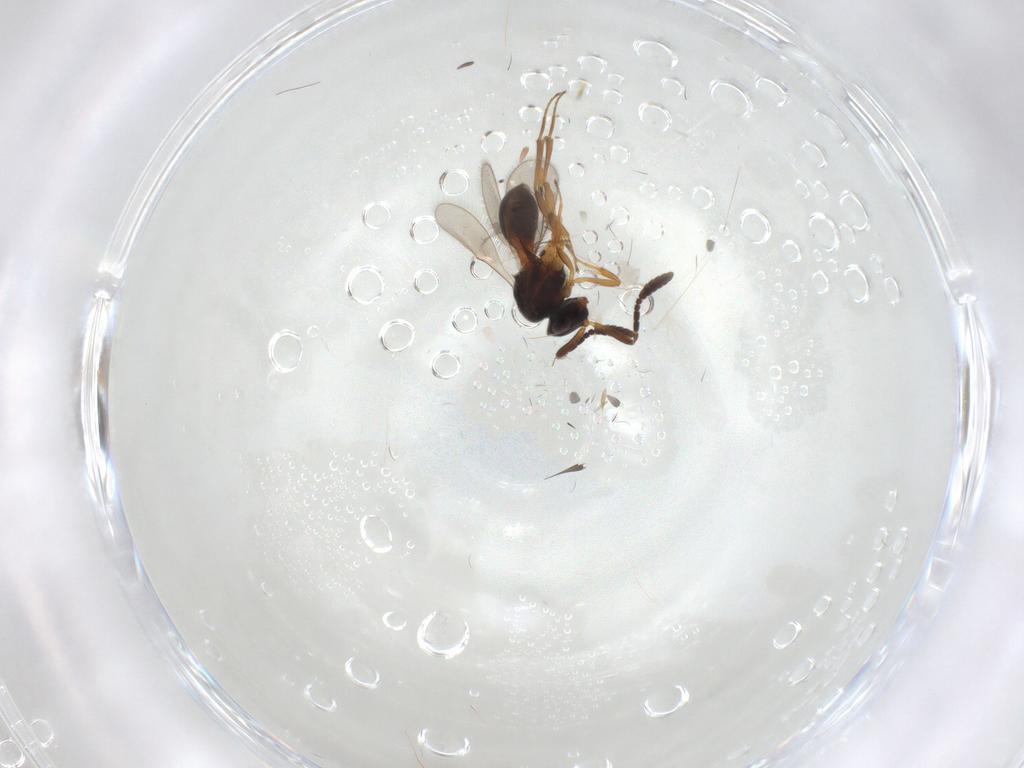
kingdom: Animalia
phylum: Arthropoda
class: Insecta
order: Hymenoptera
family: Scelionidae
